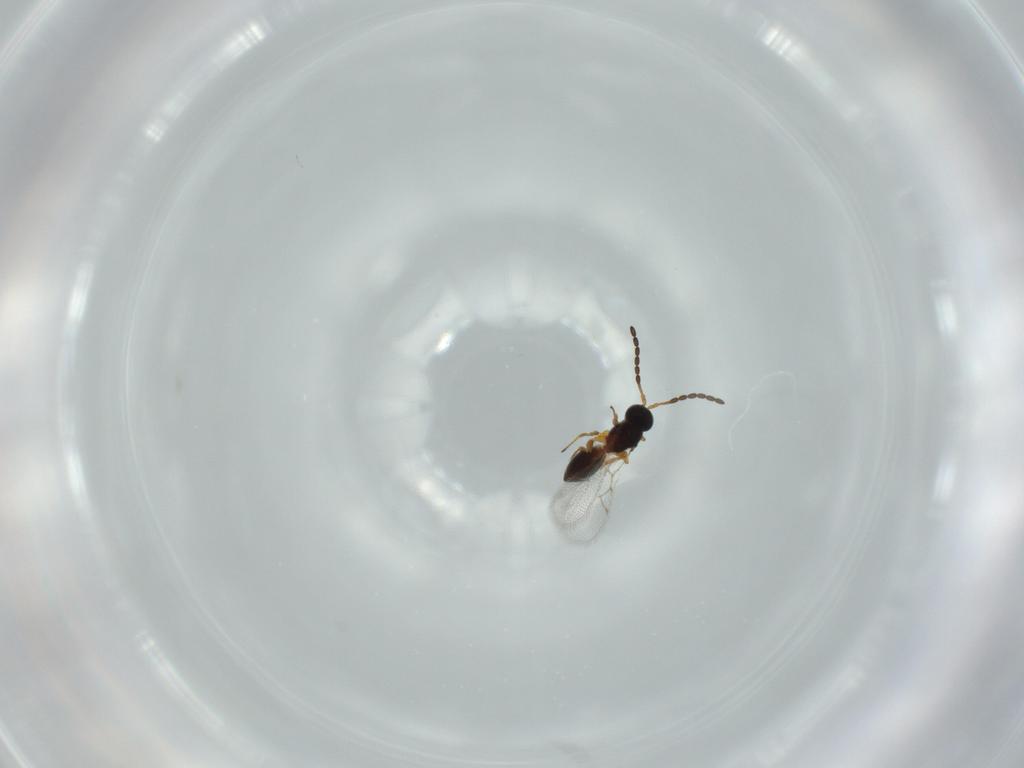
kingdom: Animalia
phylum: Arthropoda
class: Insecta
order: Hymenoptera
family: Figitidae
